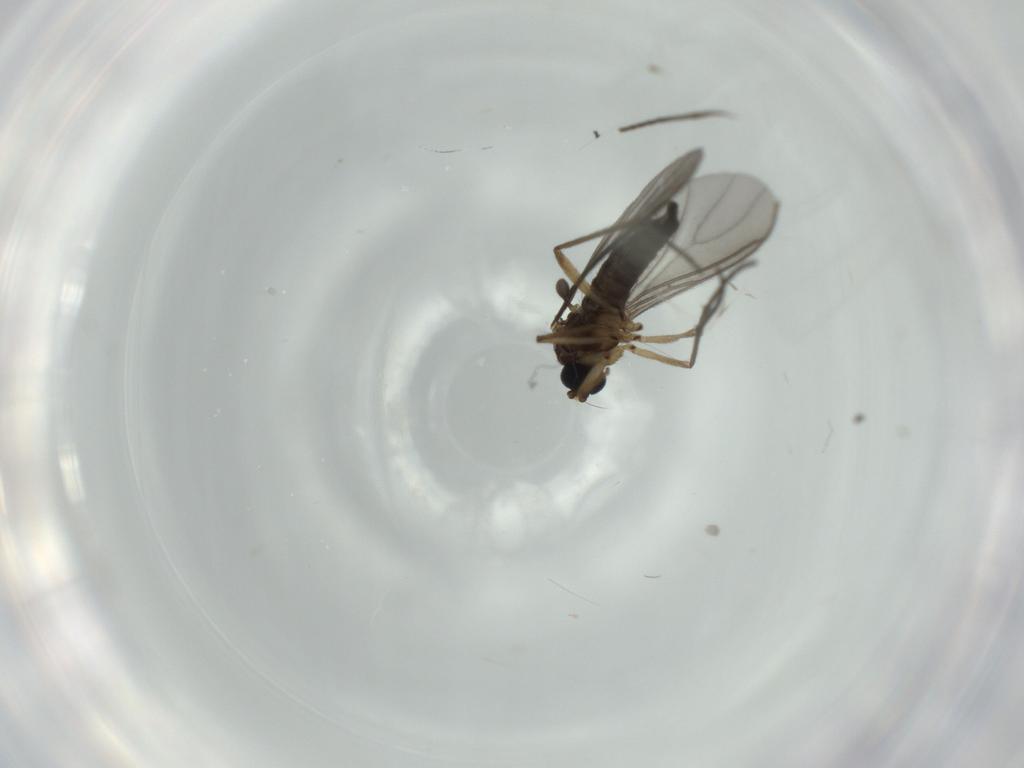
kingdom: Animalia
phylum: Arthropoda
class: Insecta
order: Diptera
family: Sciaridae
